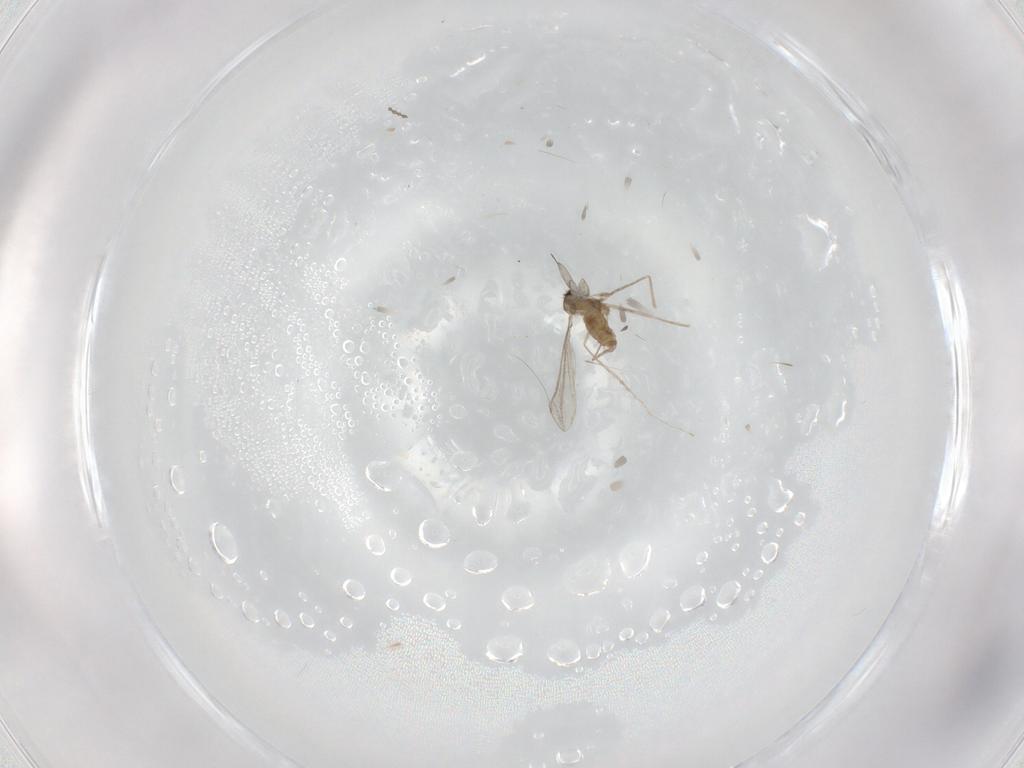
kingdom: Animalia
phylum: Arthropoda
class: Insecta
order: Diptera
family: Cecidomyiidae
